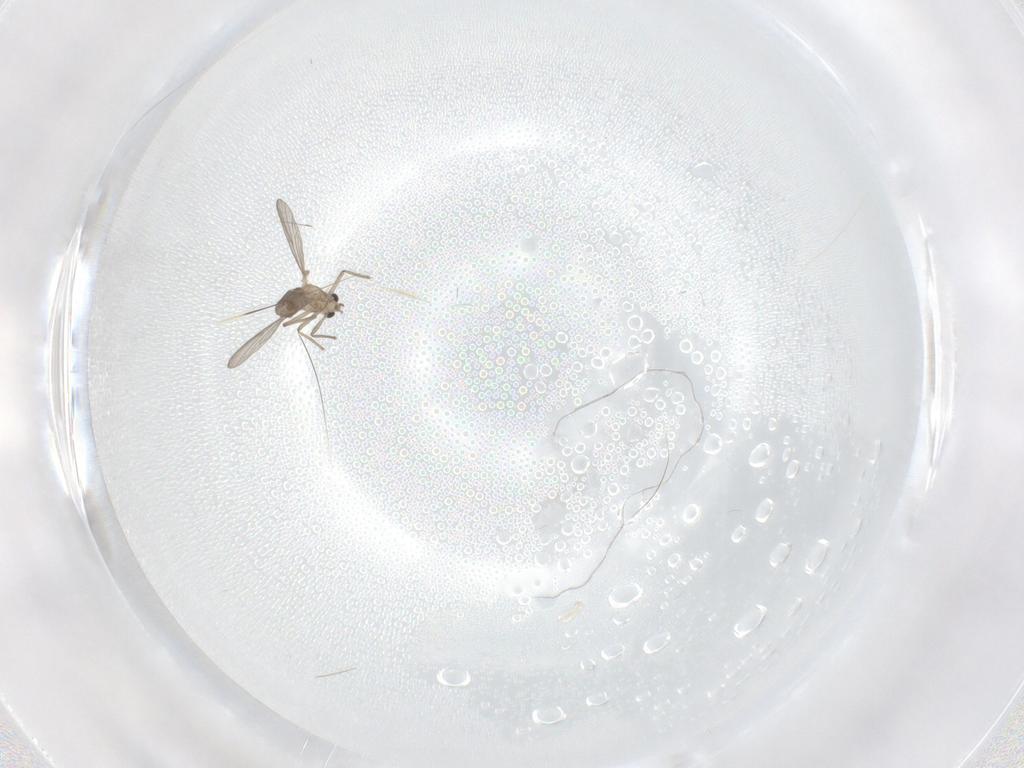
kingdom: Animalia
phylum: Arthropoda
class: Insecta
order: Diptera
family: Chironomidae
